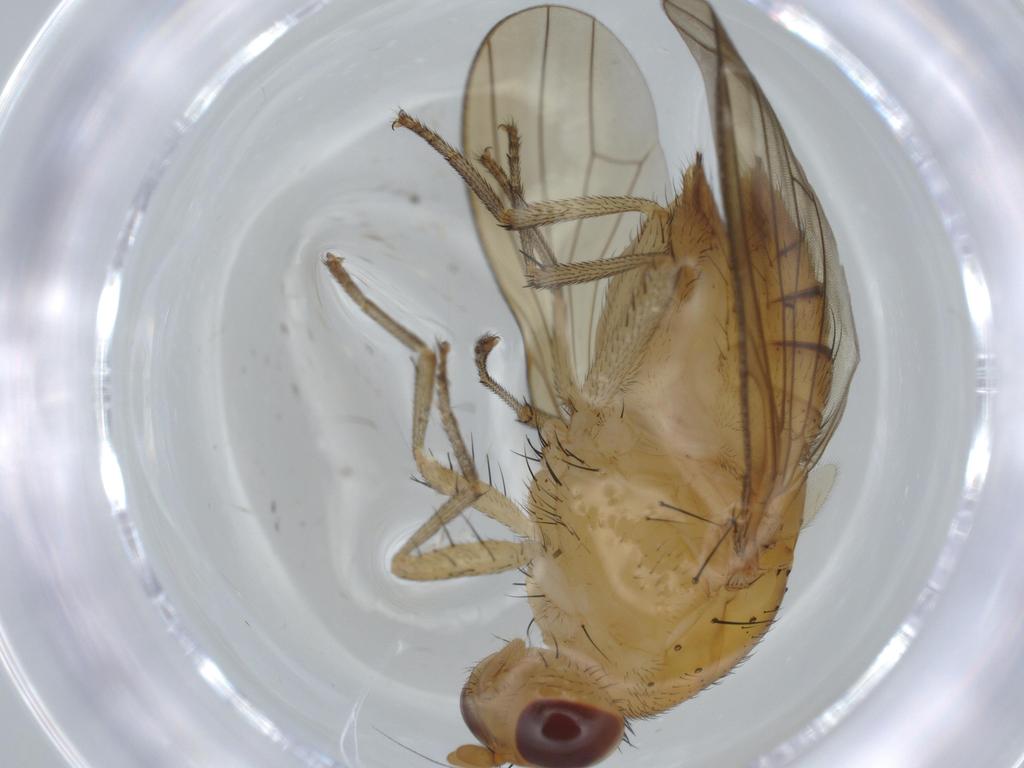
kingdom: Animalia
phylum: Arthropoda
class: Insecta
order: Diptera
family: Lauxaniidae
